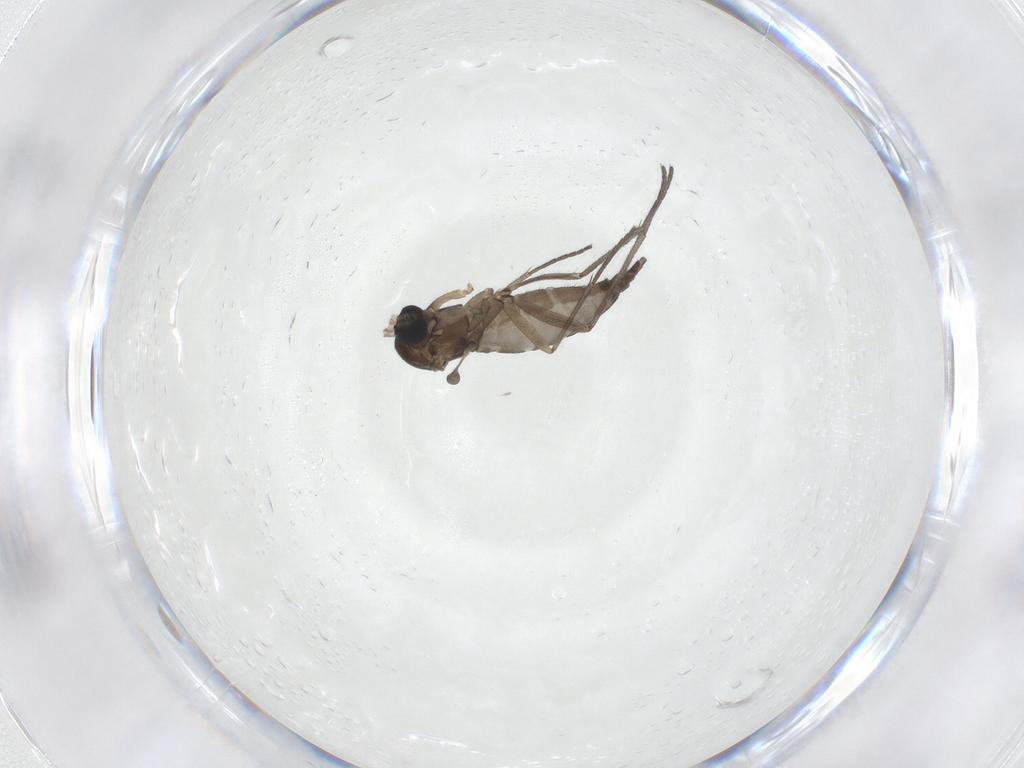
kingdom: Animalia
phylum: Arthropoda
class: Insecta
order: Diptera
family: Sciaridae
